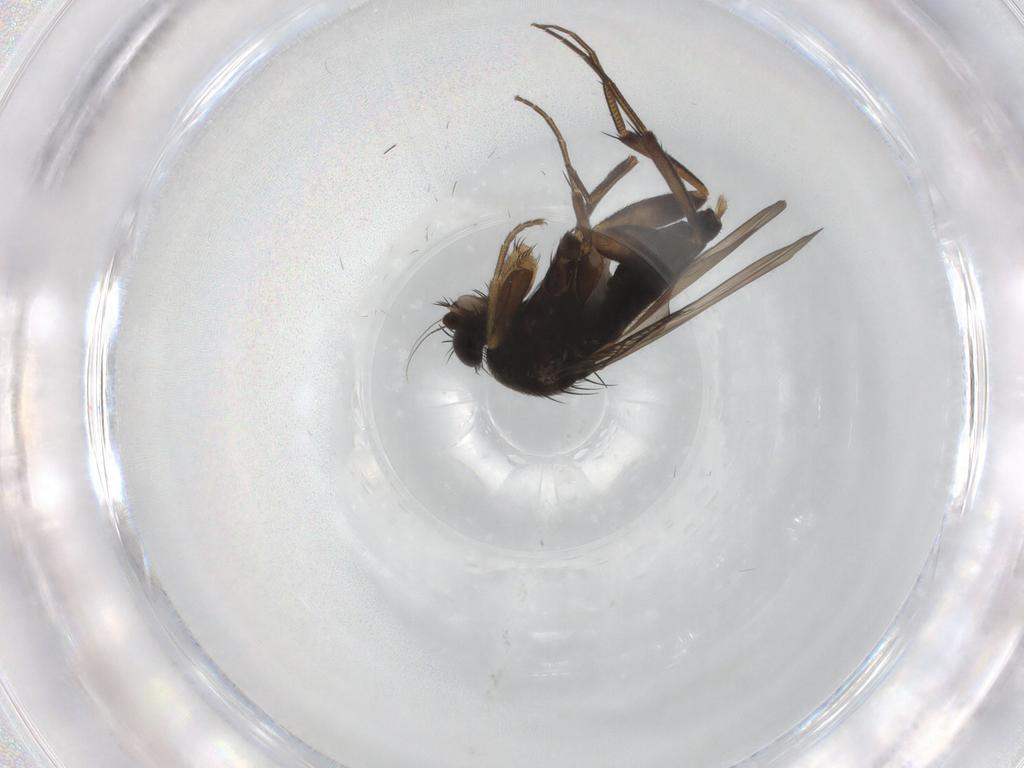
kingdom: Animalia
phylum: Arthropoda
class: Insecta
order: Diptera
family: Phoridae
